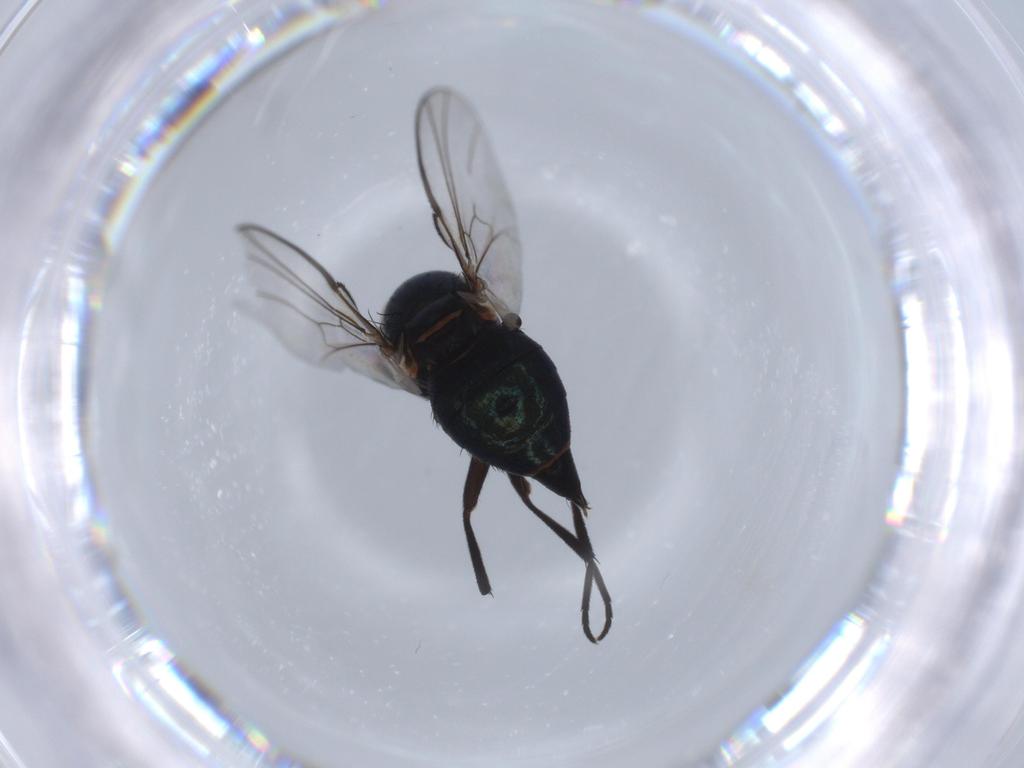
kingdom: Animalia
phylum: Arthropoda
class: Insecta
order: Diptera
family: Agromyzidae
